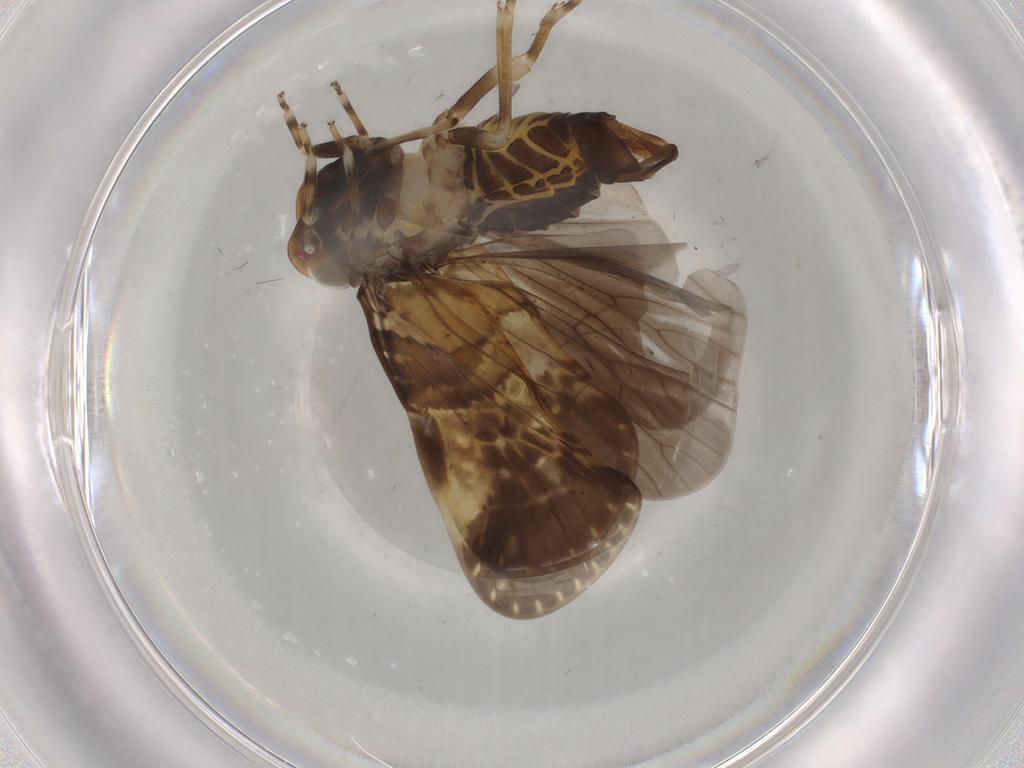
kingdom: Animalia
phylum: Arthropoda
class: Insecta
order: Hemiptera
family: Cixiidae
